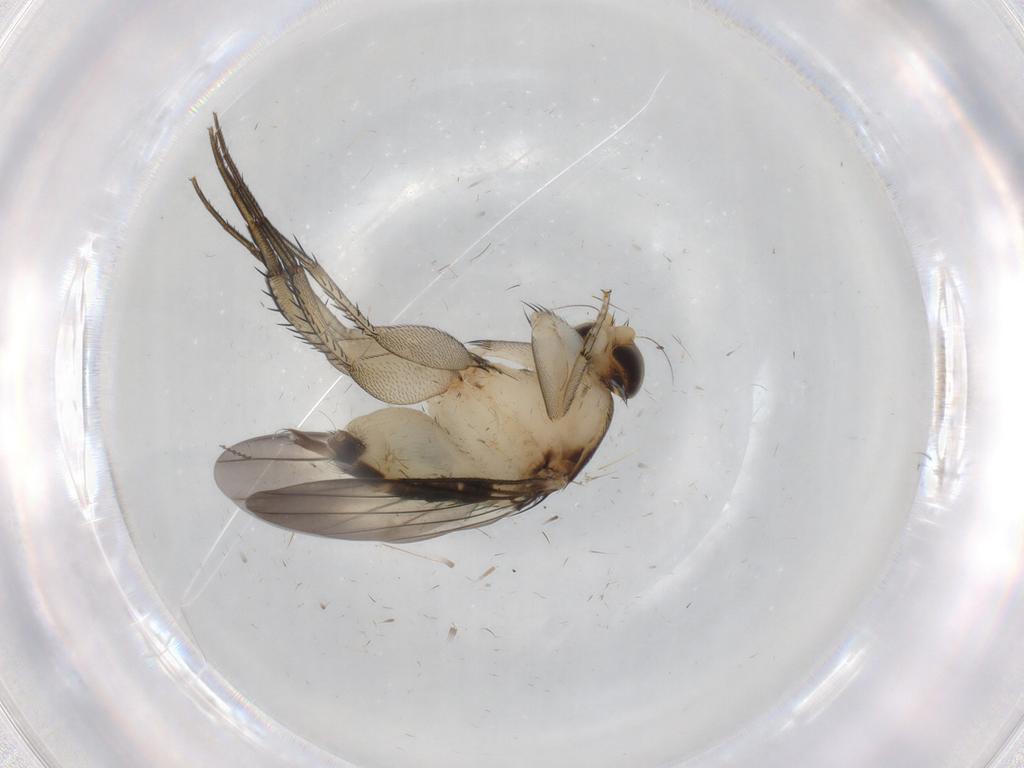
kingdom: Animalia
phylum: Arthropoda
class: Insecta
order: Diptera
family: Phoridae
